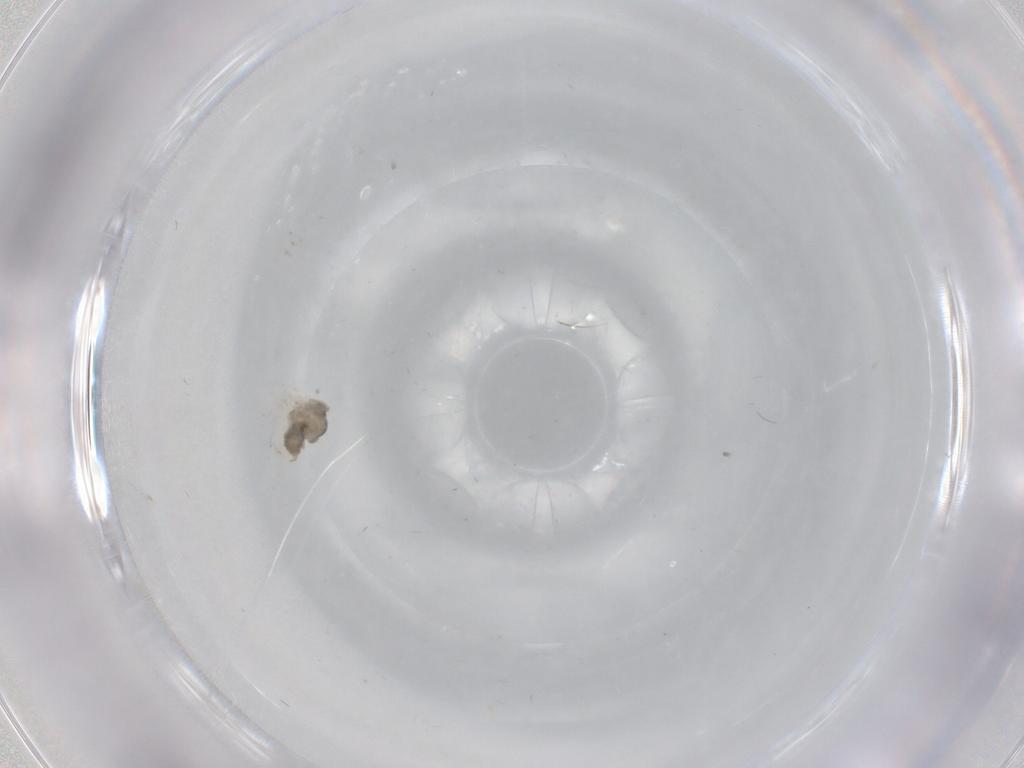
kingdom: Animalia
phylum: Arthropoda
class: Insecta
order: Diptera
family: Cecidomyiidae
